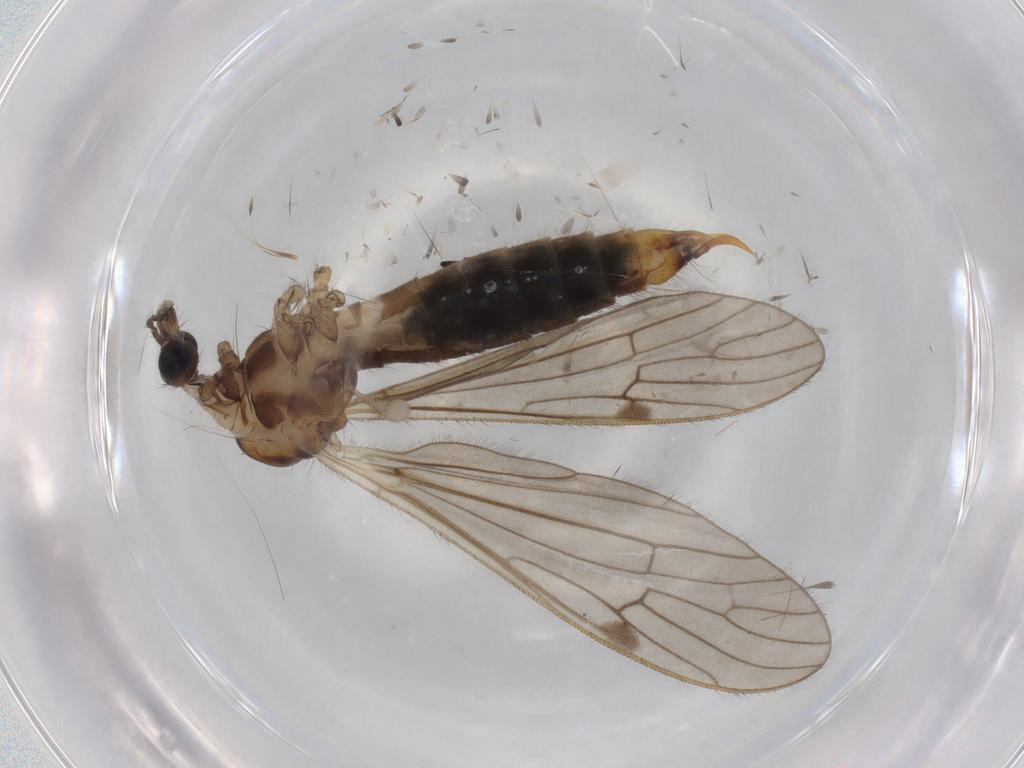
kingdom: Animalia
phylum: Arthropoda
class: Insecta
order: Diptera
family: Limoniidae
